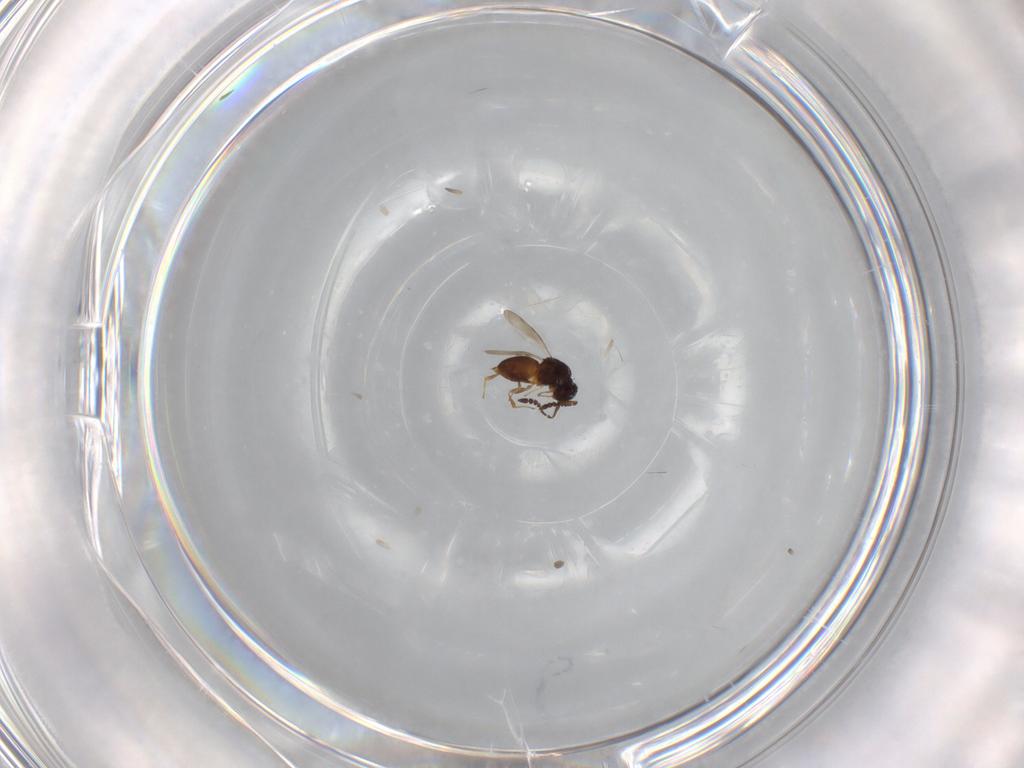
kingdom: Animalia
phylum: Arthropoda
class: Insecta
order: Hymenoptera
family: Ceraphronidae
